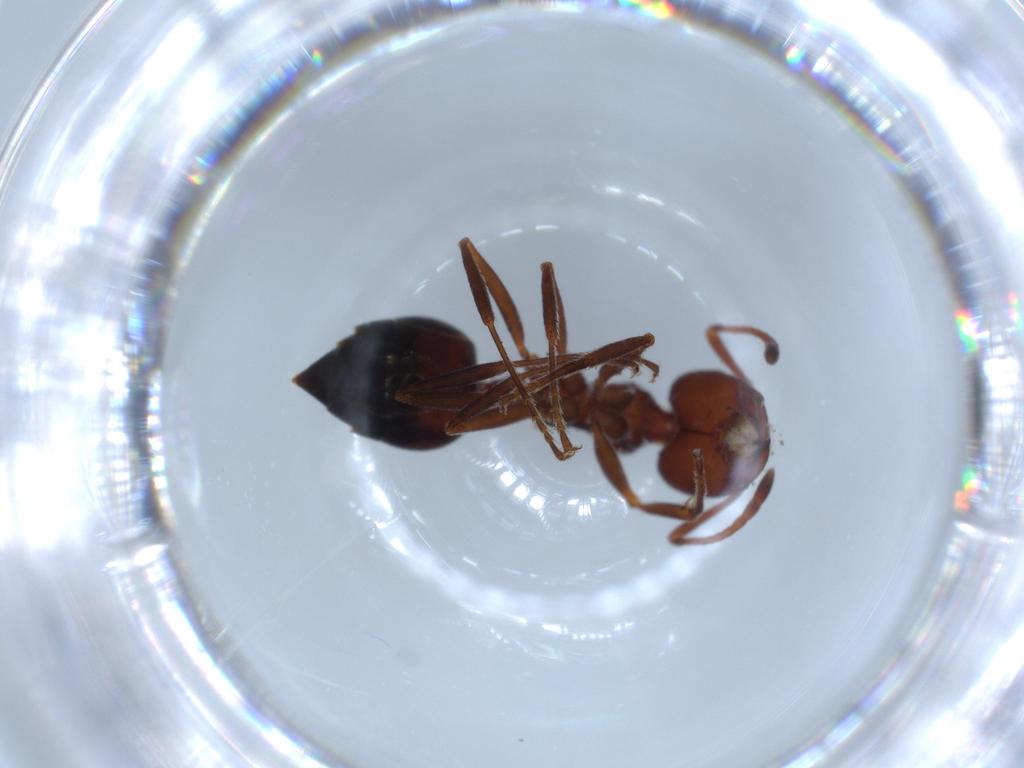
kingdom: Animalia
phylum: Arthropoda
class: Insecta
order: Hymenoptera
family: Formicidae
